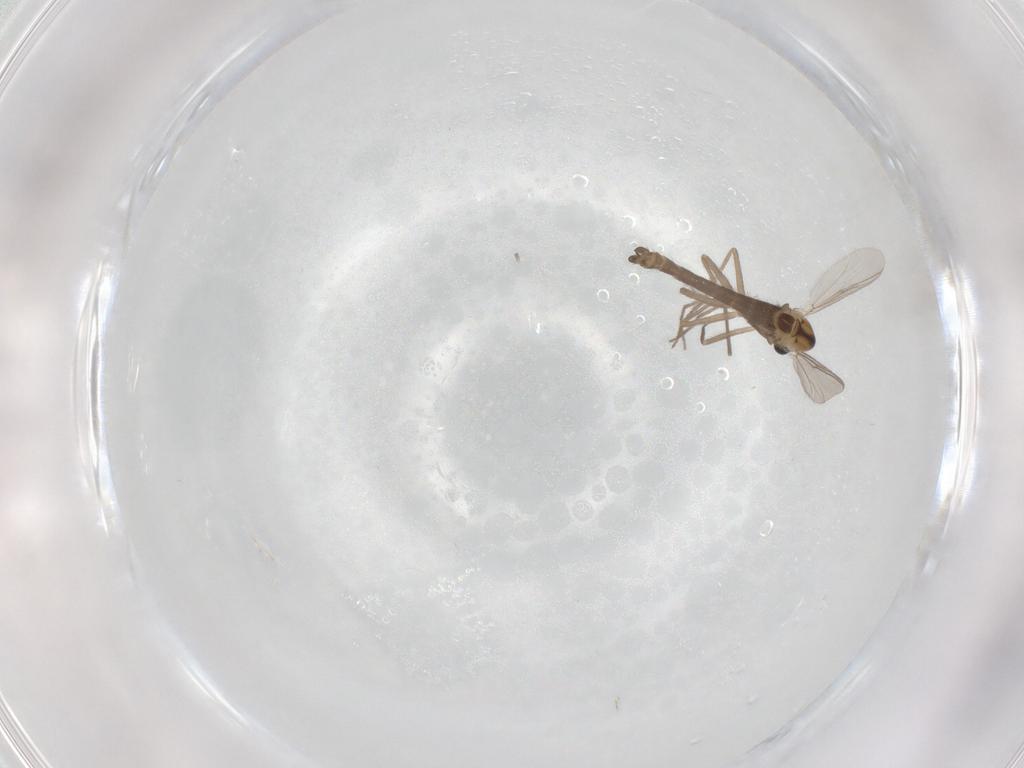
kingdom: Animalia
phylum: Arthropoda
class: Insecta
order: Diptera
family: Chironomidae
